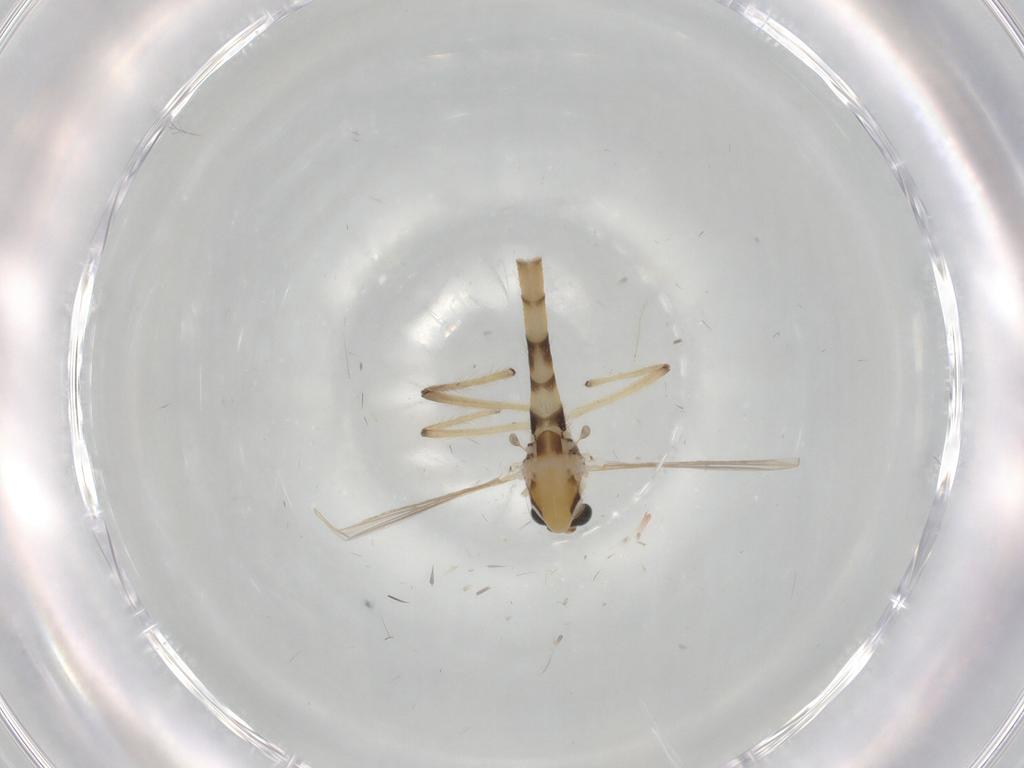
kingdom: Animalia
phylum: Arthropoda
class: Insecta
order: Diptera
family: Chironomidae
